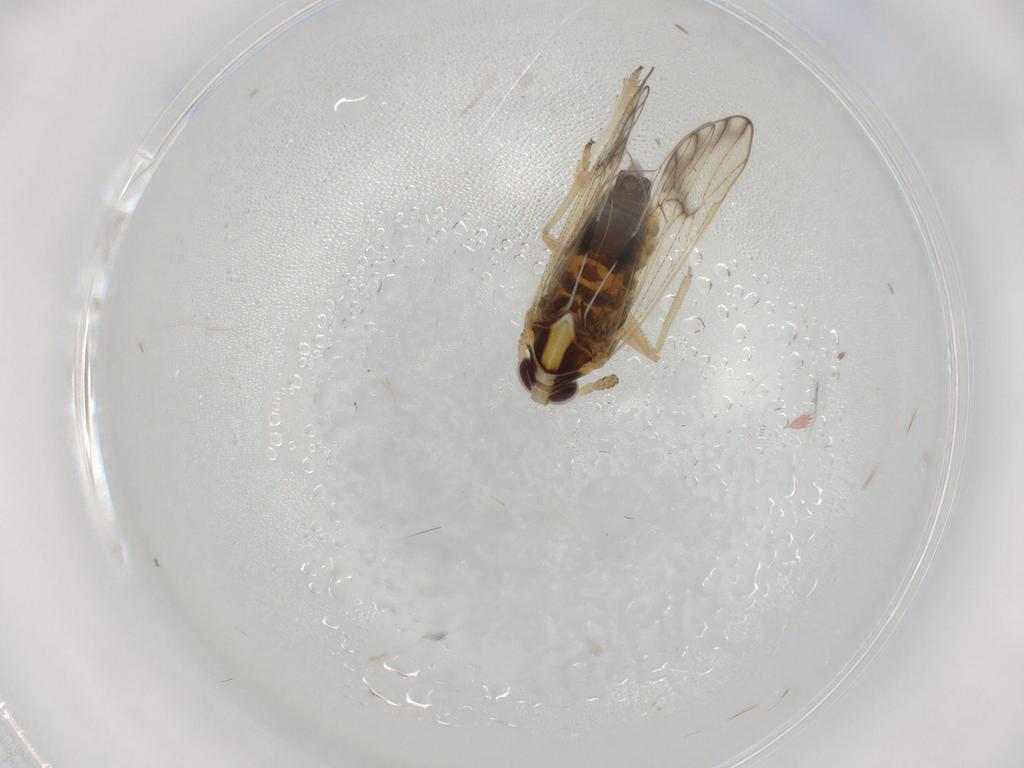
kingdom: Animalia
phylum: Arthropoda
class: Insecta
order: Hemiptera
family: Delphacidae
